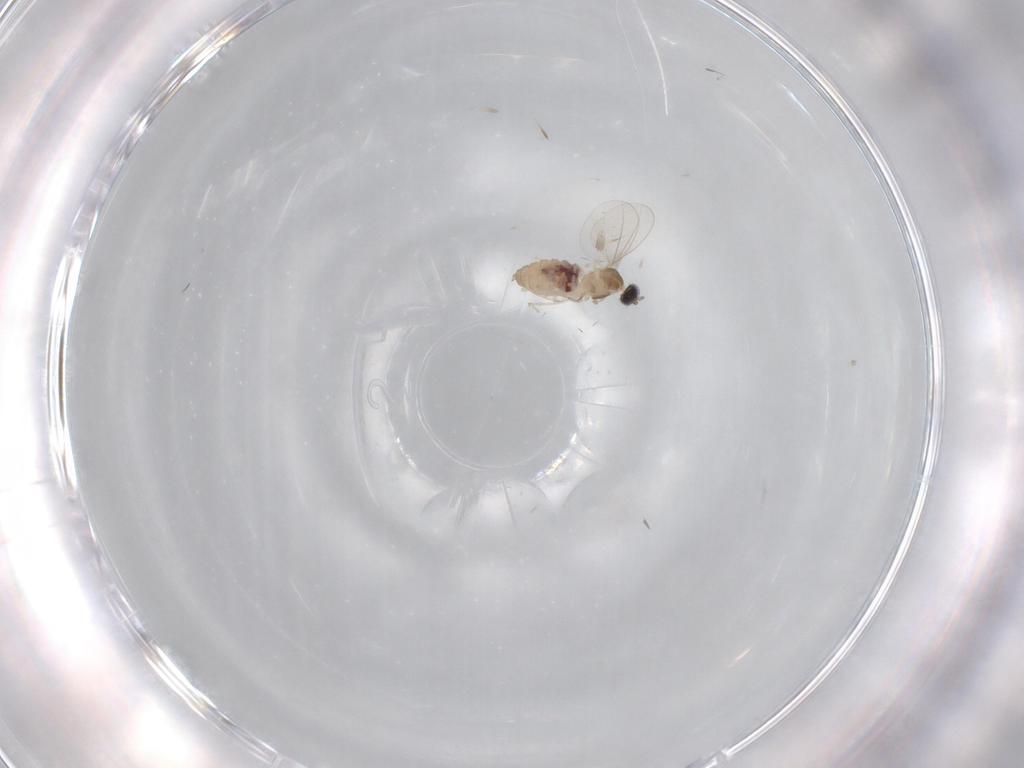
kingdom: Animalia
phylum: Arthropoda
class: Insecta
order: Diptera
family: Cecidomyiidae
